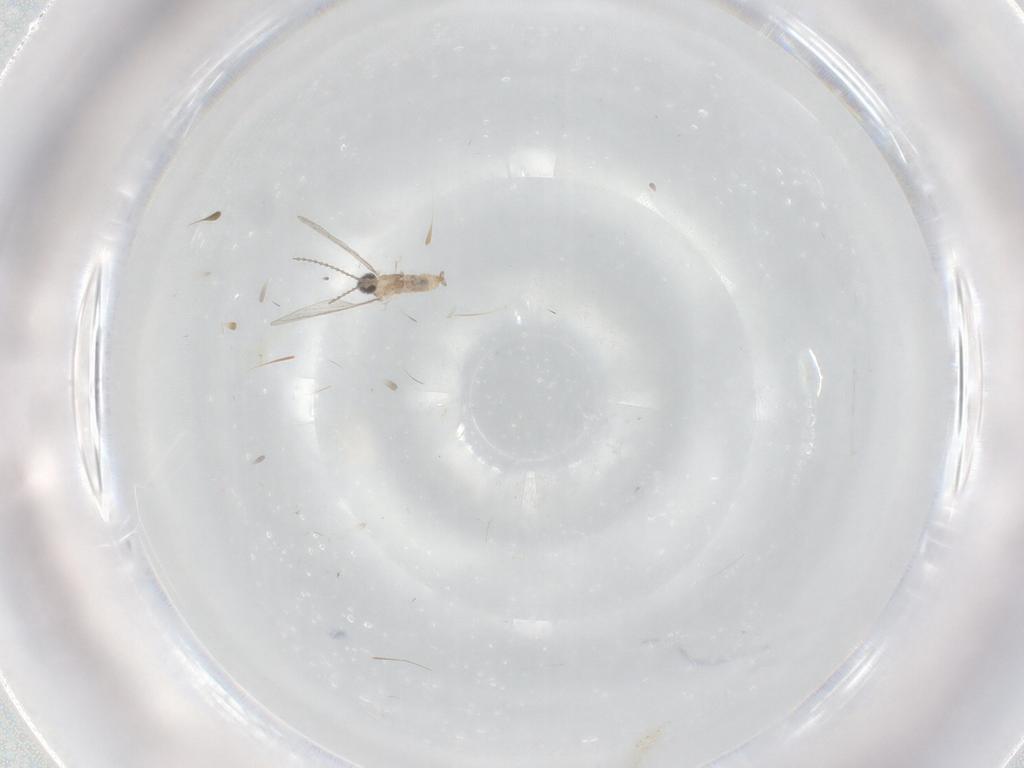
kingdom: Animalia
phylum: Arthropoda
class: Insecta
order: Diptera
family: Cecidomyiidae
